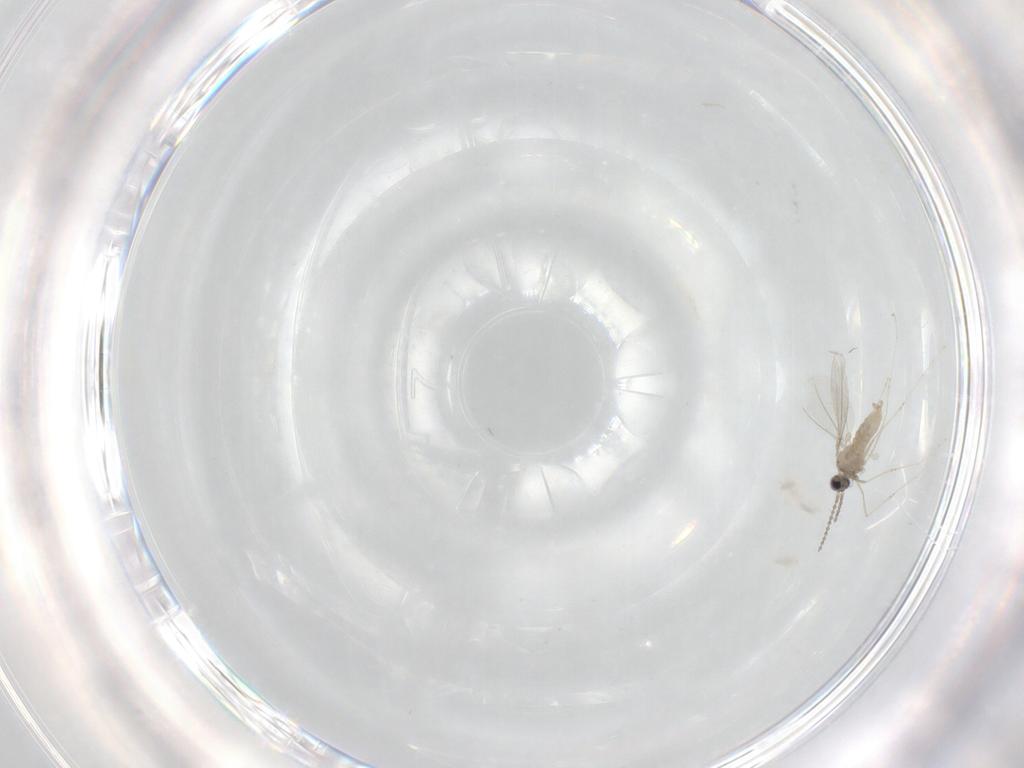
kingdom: Animalia
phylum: Arthropoda
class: Insecta
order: Diptera
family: Cecidomyiidae
